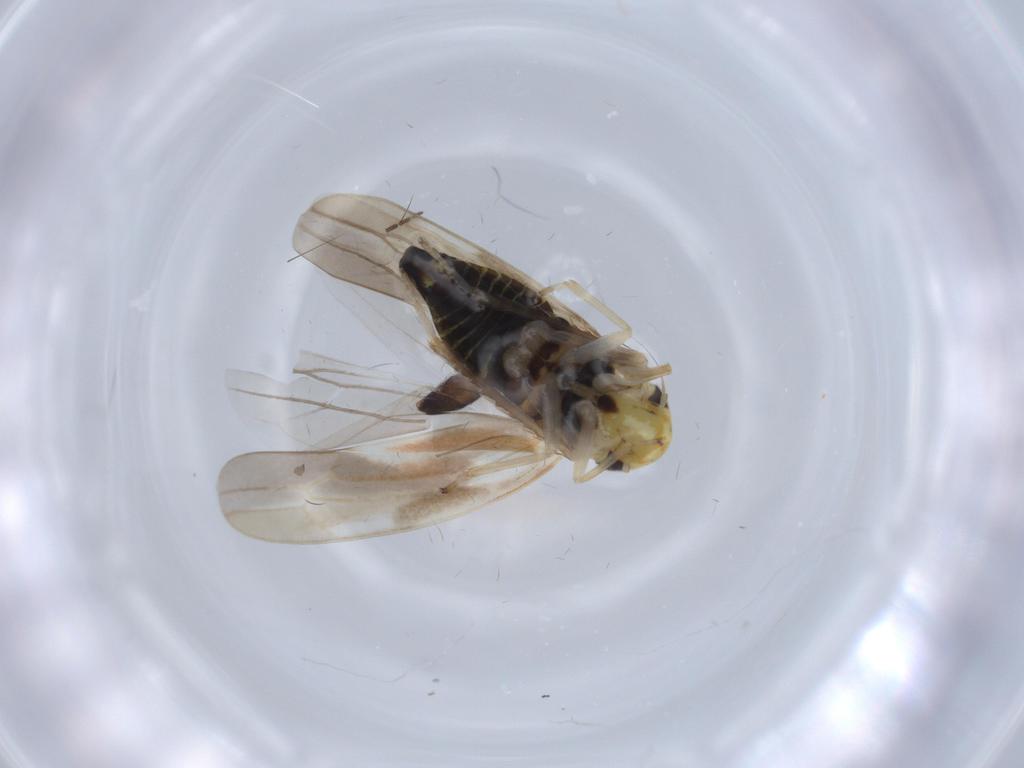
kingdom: Animalia
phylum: Arthropoda
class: Insecta
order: Hemiptera
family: Cicadellidae
